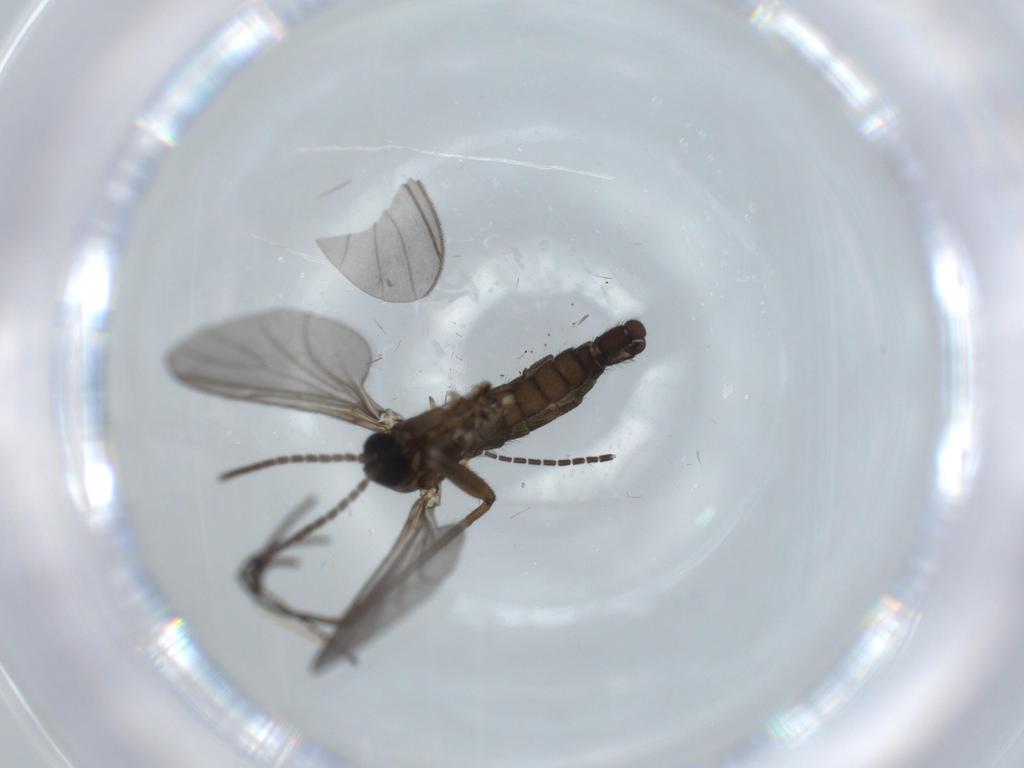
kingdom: Animalia
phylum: Arthropoda
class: Insecta
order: Diptera
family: Sciaridae
